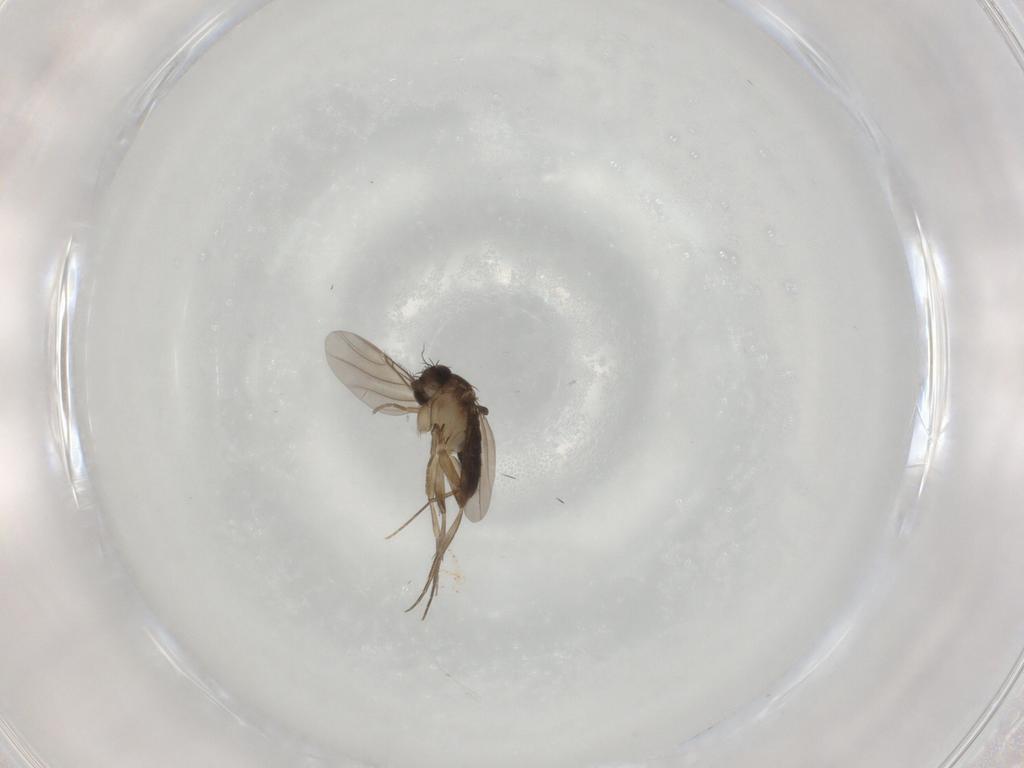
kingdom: Animalia
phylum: Arthropoda
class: Insecta
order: Diptera
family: Phoridae
